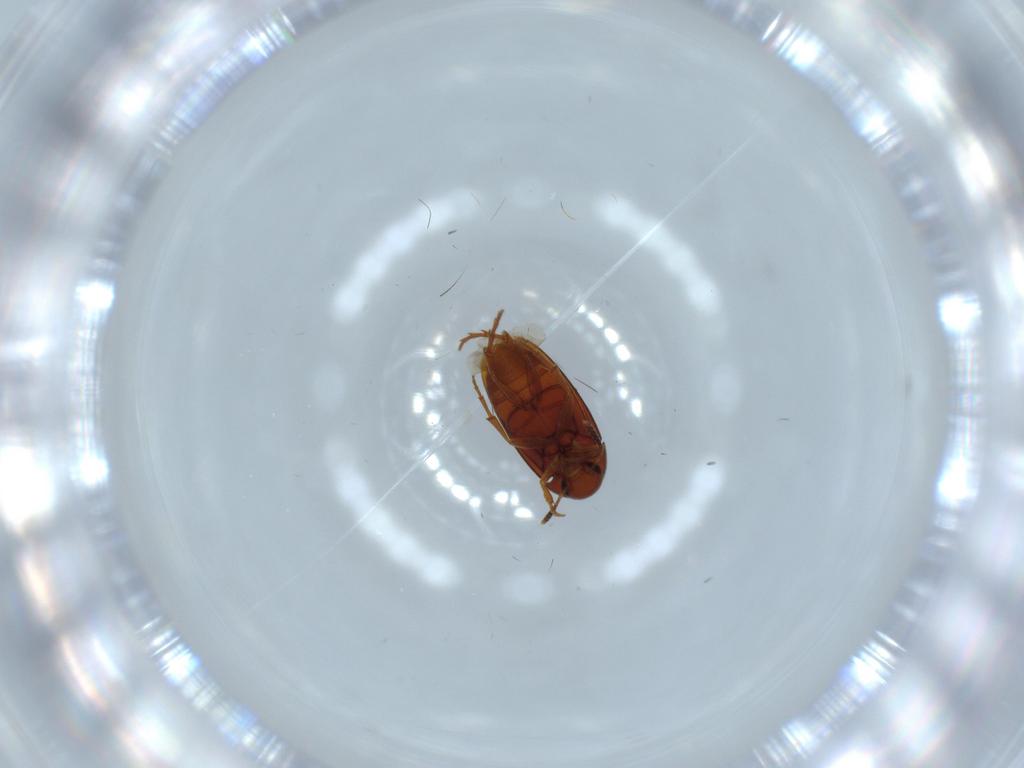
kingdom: Animalia
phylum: Arthropoda
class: Insecta
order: Coleoptera
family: Scraptiidae
